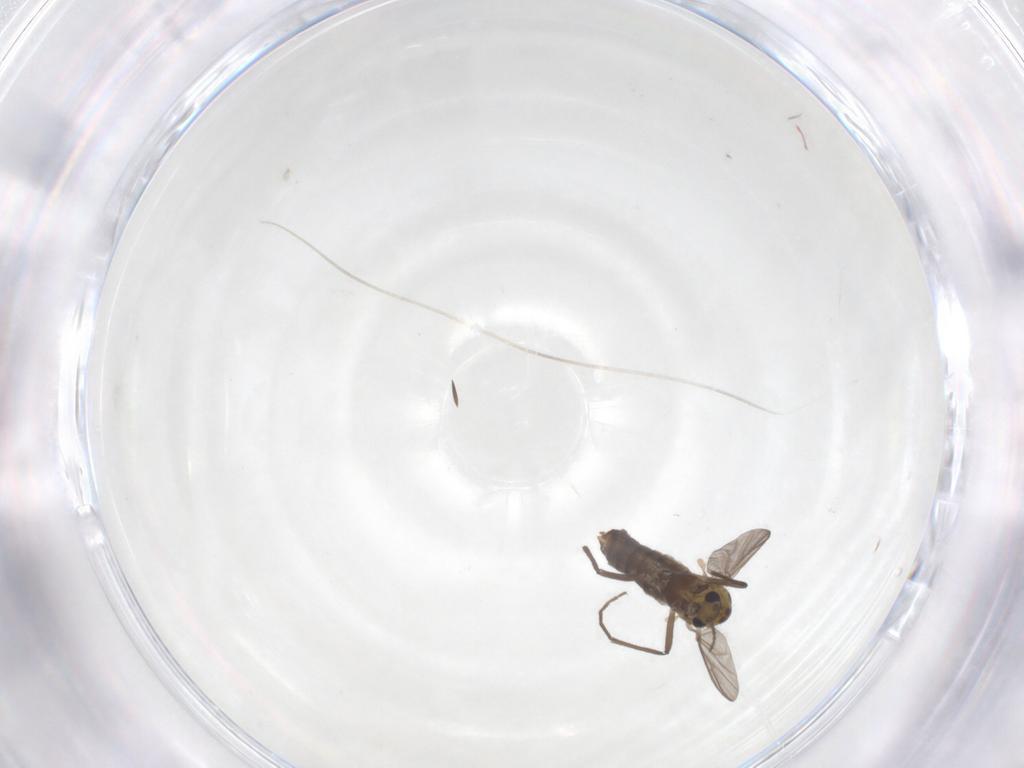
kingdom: Animalia
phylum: Arthropoda
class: Insecta
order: Diptera
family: Chironomidae
